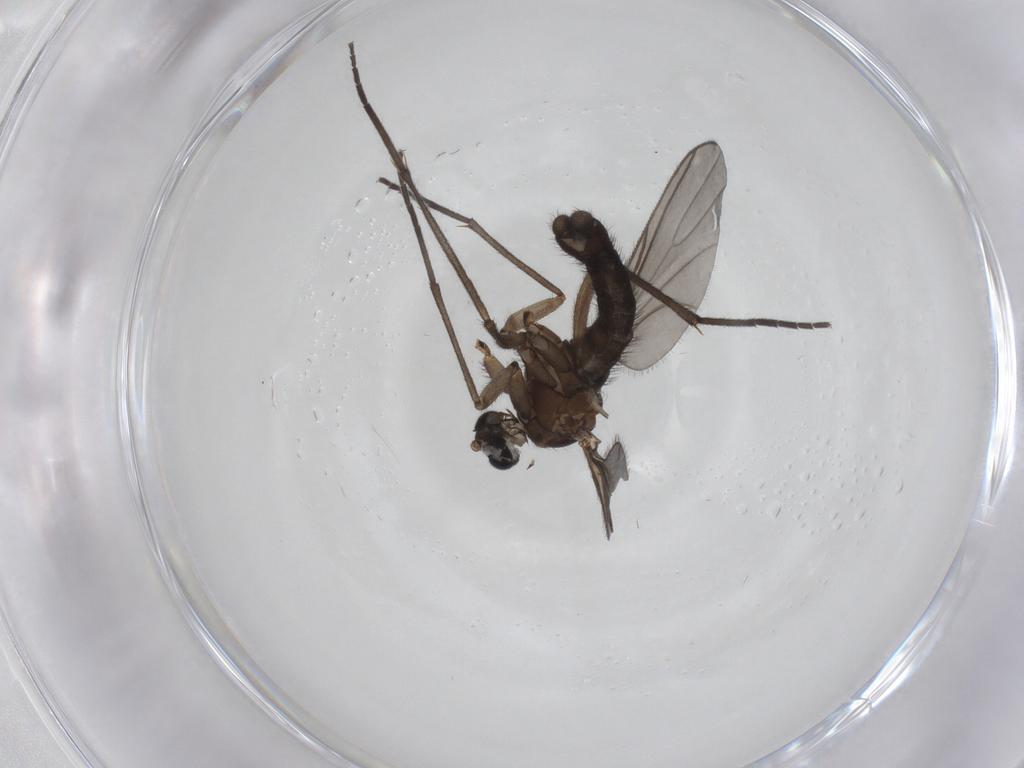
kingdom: Animalia
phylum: Arthropoda
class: Insecta
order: Diptera
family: Sciaridae
